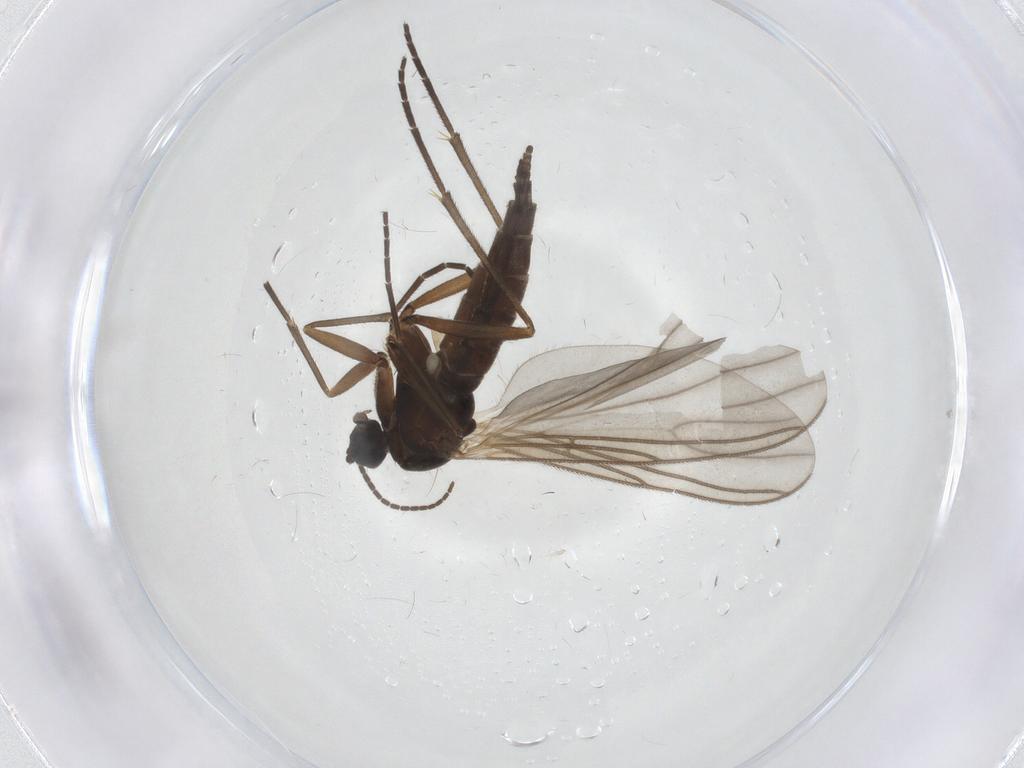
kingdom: Animalia
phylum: Arthropoda
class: Insecta
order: Diptera
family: Sciaridae
